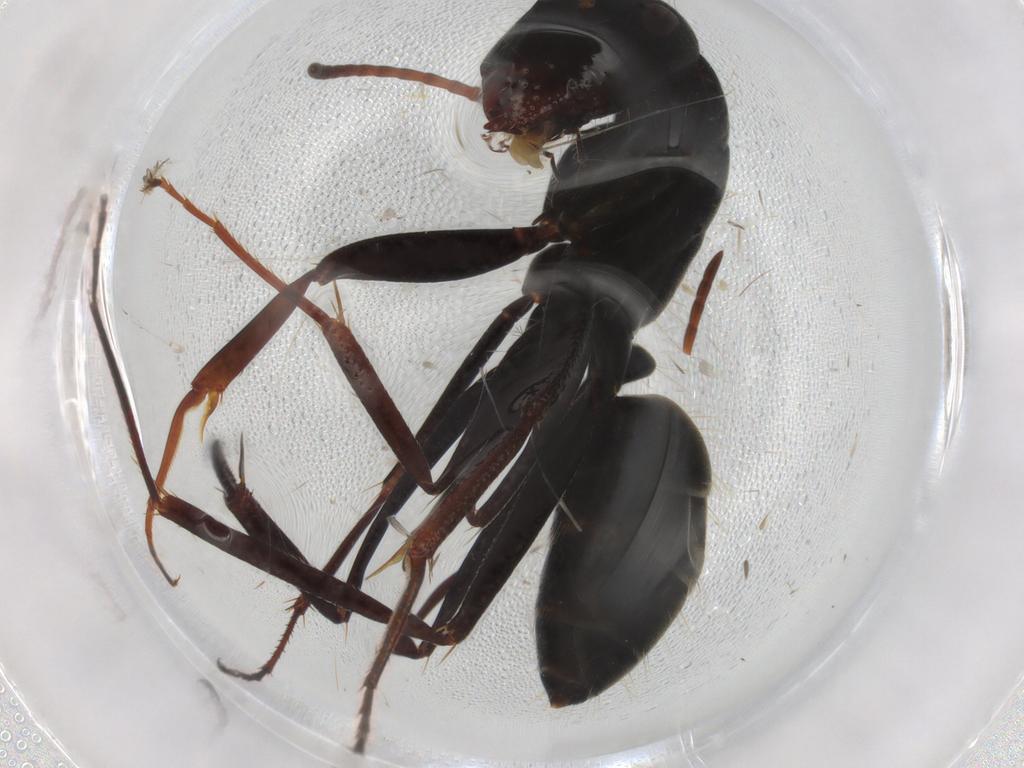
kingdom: Animalia
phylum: Arthropoda
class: Insecta
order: Hymenoptera
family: Formicidae
